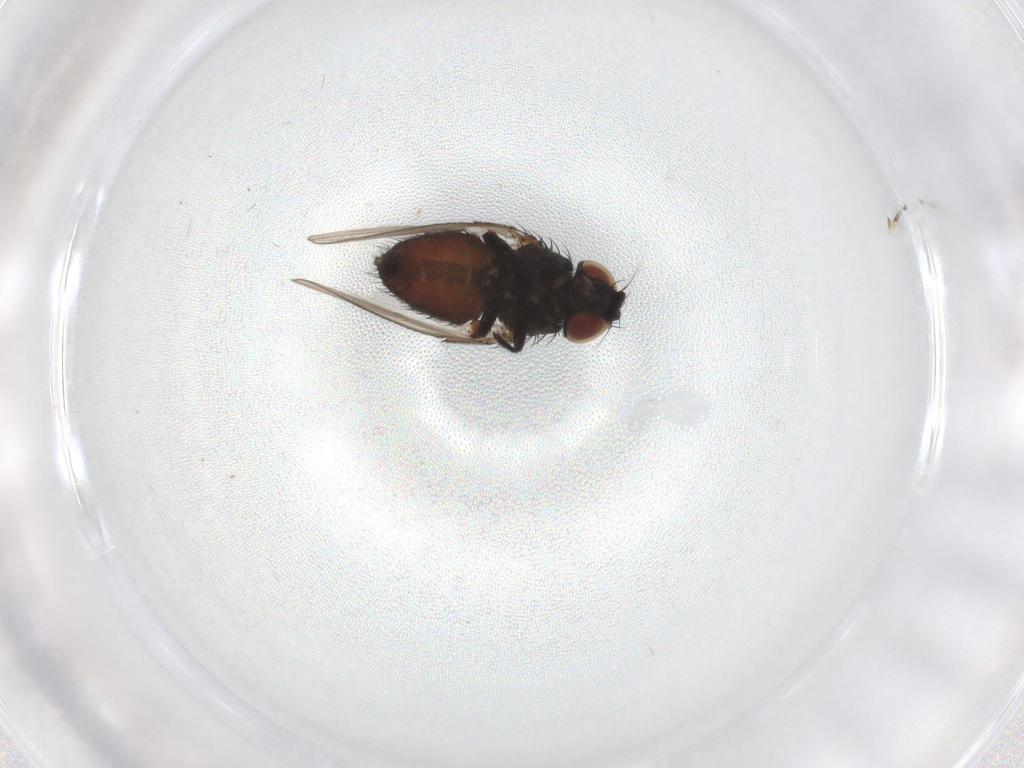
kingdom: Animalia
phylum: Arthropoda
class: Insecta
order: Diptera
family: Milichiidae
